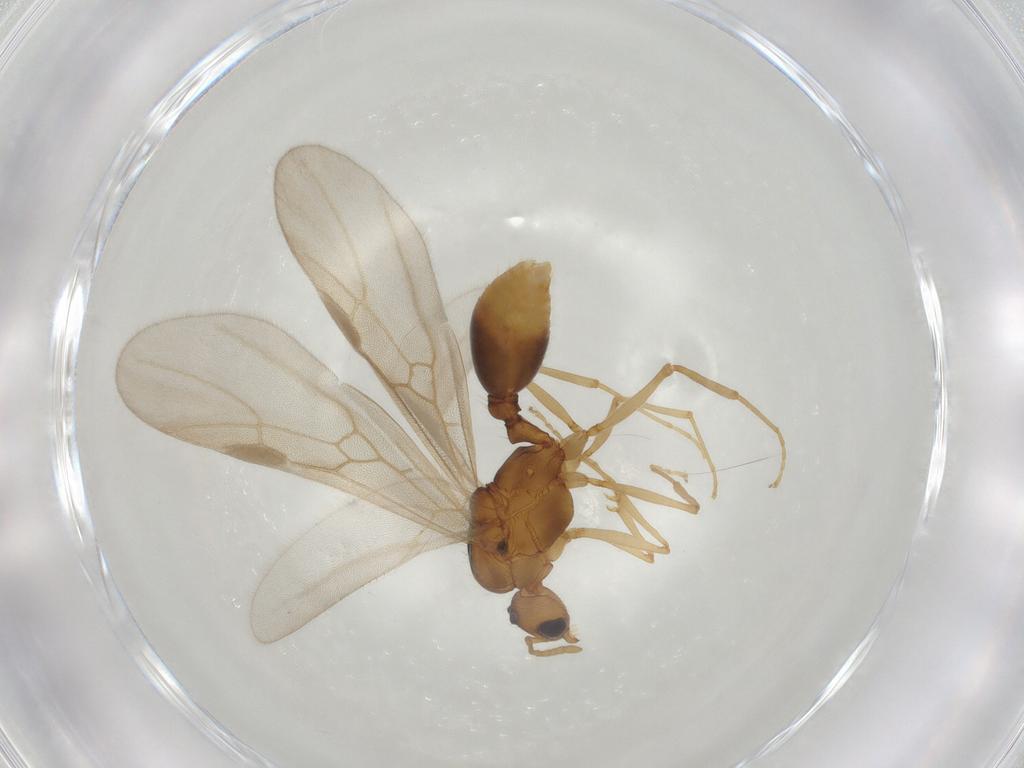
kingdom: Animalia
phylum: Arthropoda
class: Insecta
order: Hymenoptera
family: Formicidae
